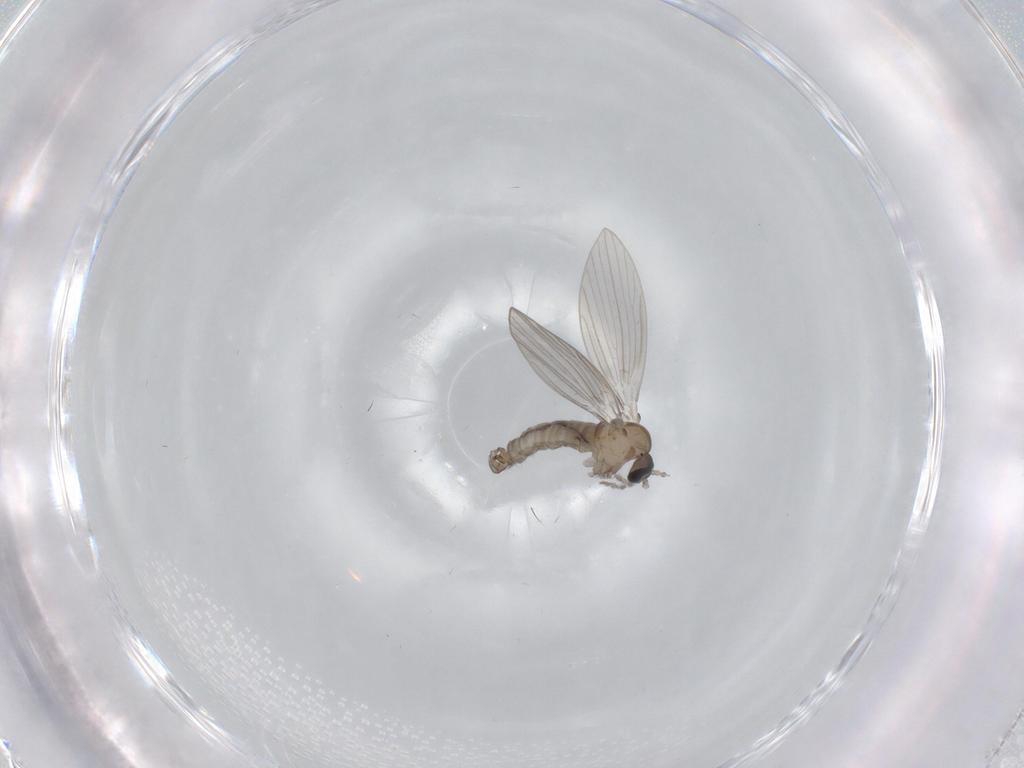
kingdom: Animalia
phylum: Arthropoda
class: Insecta
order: Diptera
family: Psychodidae
